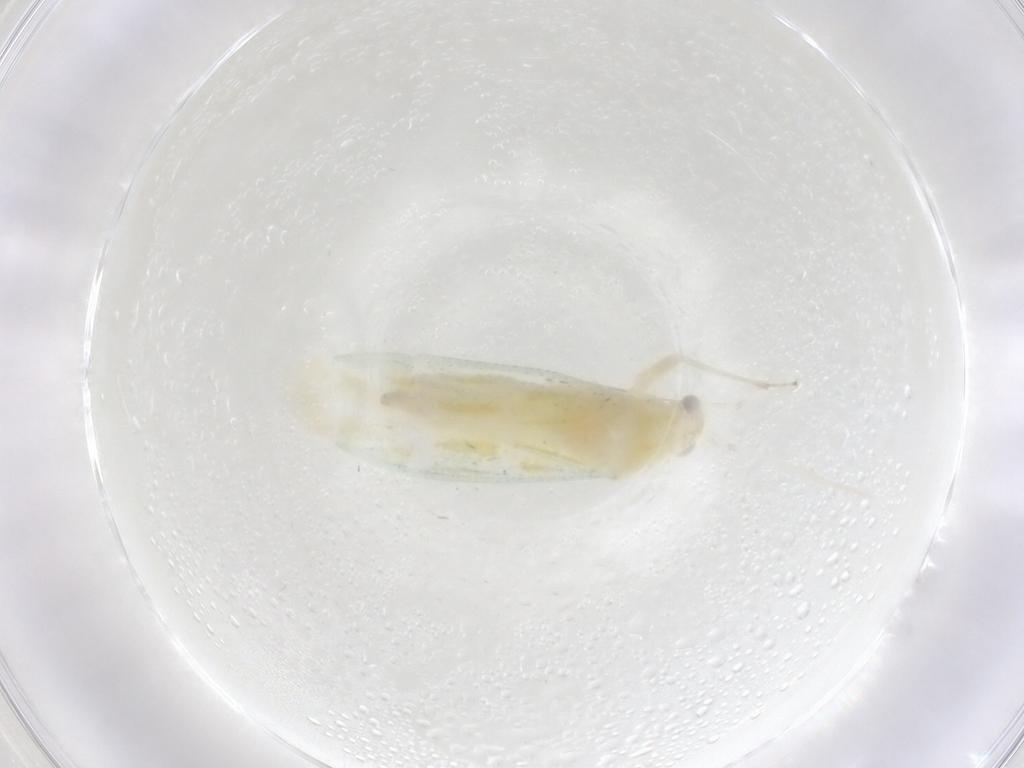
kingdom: Animalia
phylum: Arthropoda
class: Insecta
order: Hemiptera
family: Miridae
